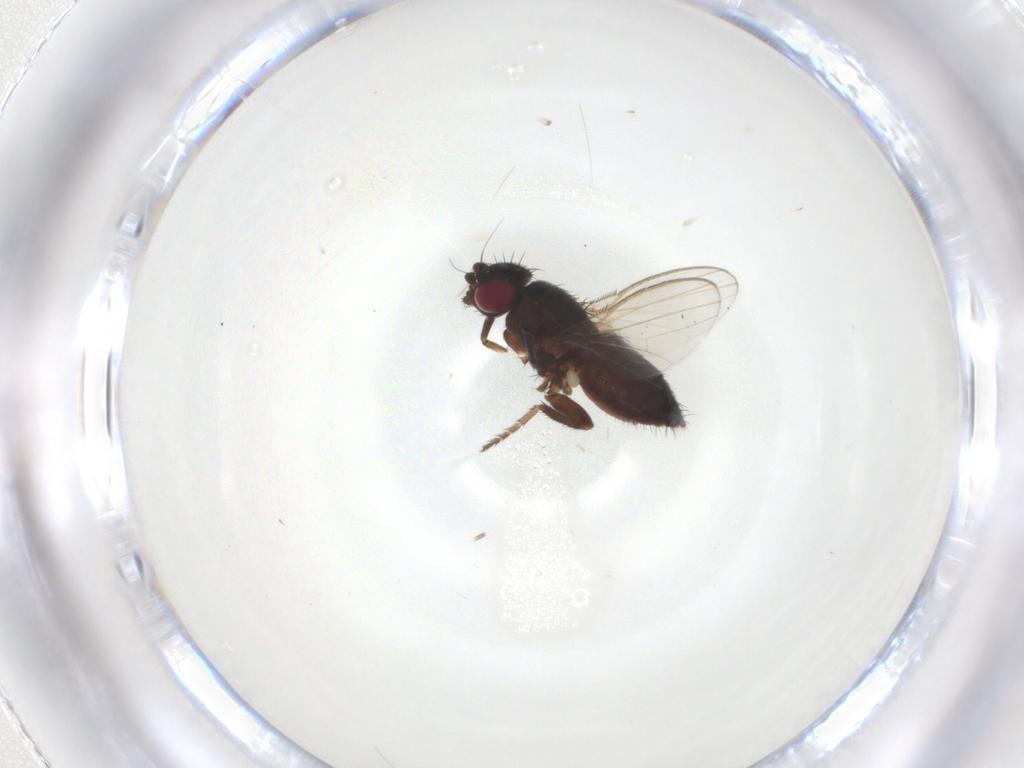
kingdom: Animalia
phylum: Arthropoda
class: Insecta
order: Diptera
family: Milichiidae
